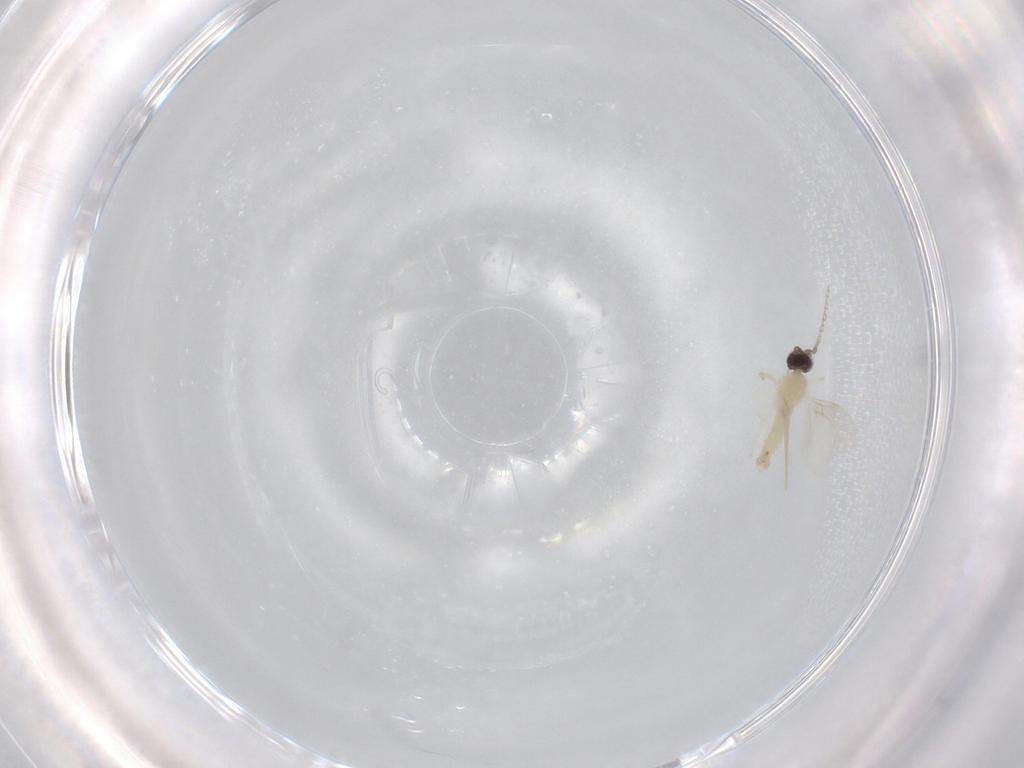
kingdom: Animalia
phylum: Arthropoda
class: Insecta
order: Diptera
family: Cecidomyiidae
